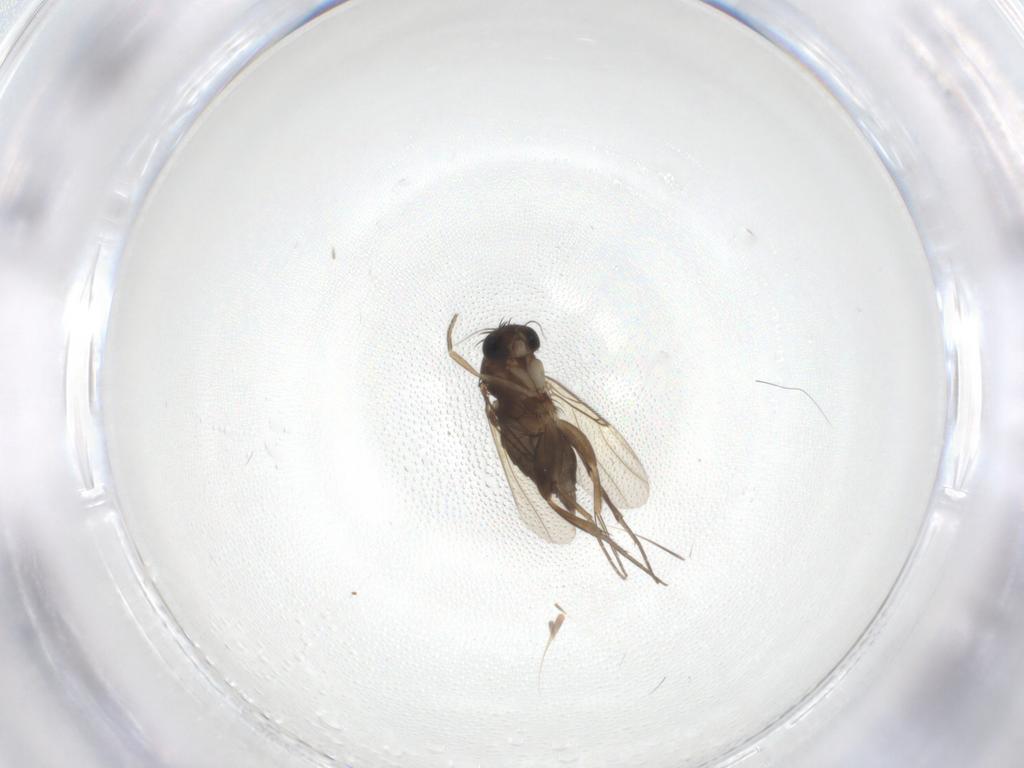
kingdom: Animalia
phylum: Arthropoda
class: Insecta
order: Diptera
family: Phoridae
